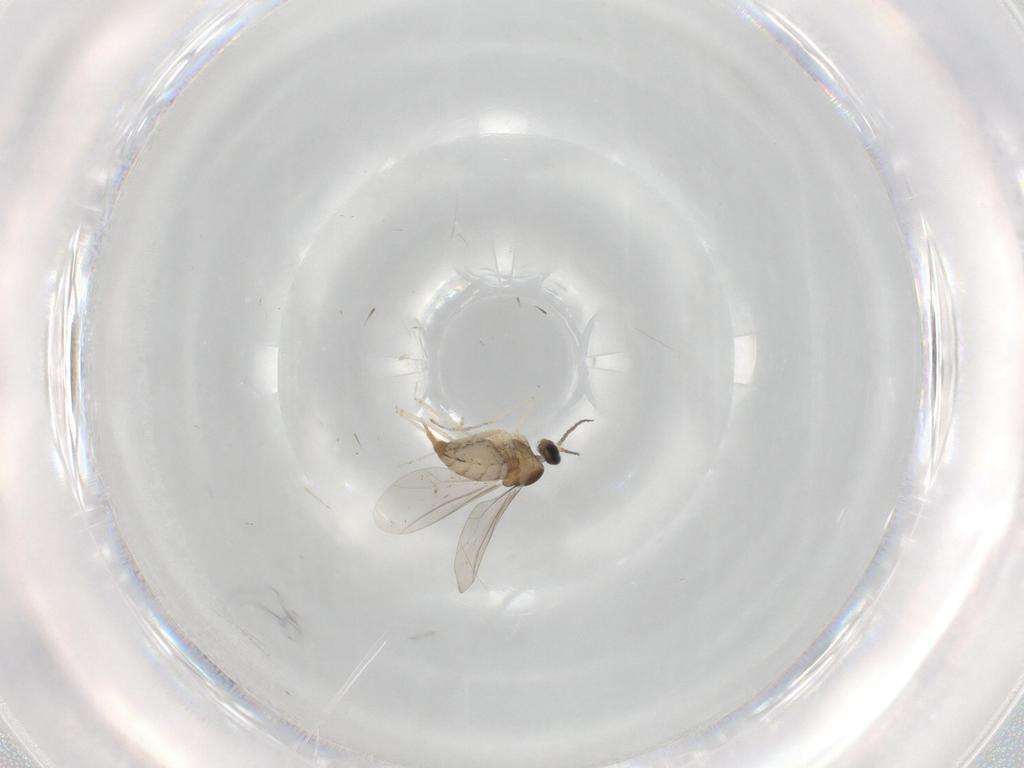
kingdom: Animalia
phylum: Arthropoda
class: Insecta
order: Diptera
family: Cecidomyiidae
